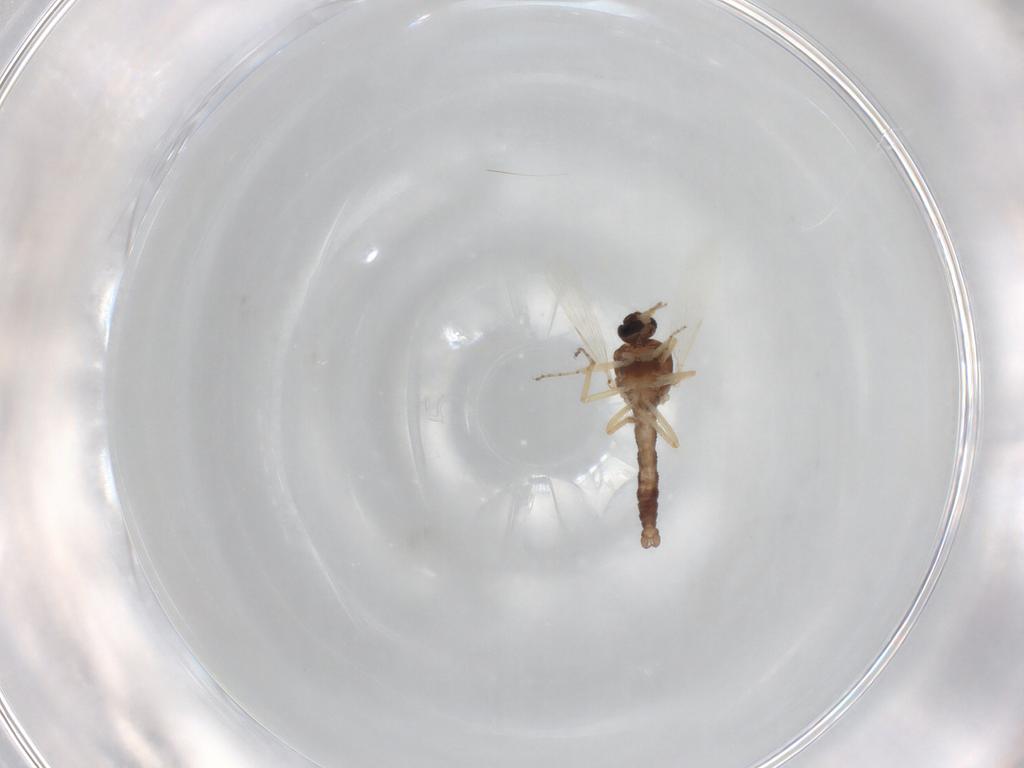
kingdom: Animalia
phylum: Arthropoda
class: Insecta
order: Diptera
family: Ceratopogonidae
